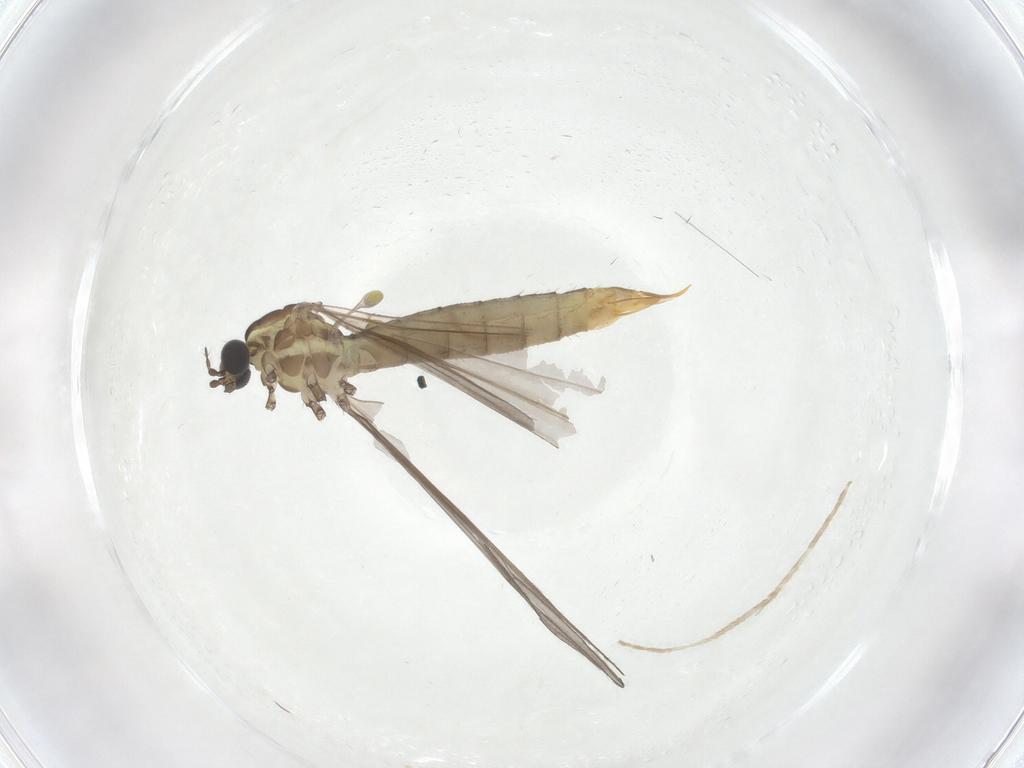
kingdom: Animalia
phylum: Arthropoda
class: Insecta
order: Diptera
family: Limoniidae
